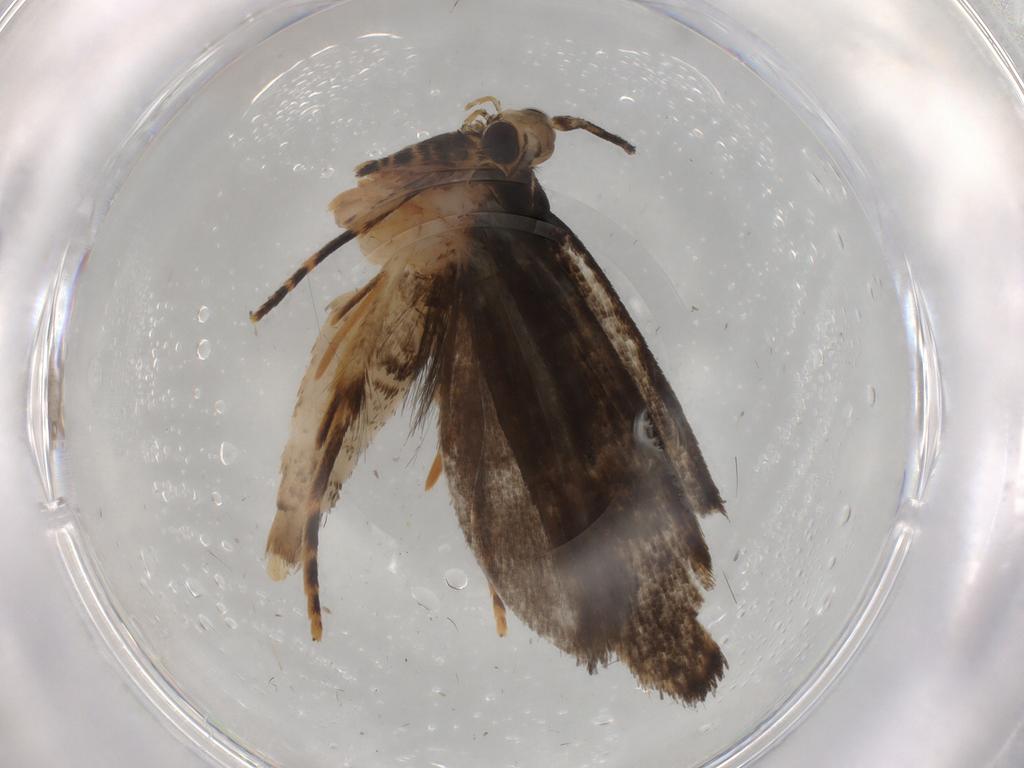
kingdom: Animalia
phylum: Arthropoda
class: Insecta
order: Lepidoptera
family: Tineidae
